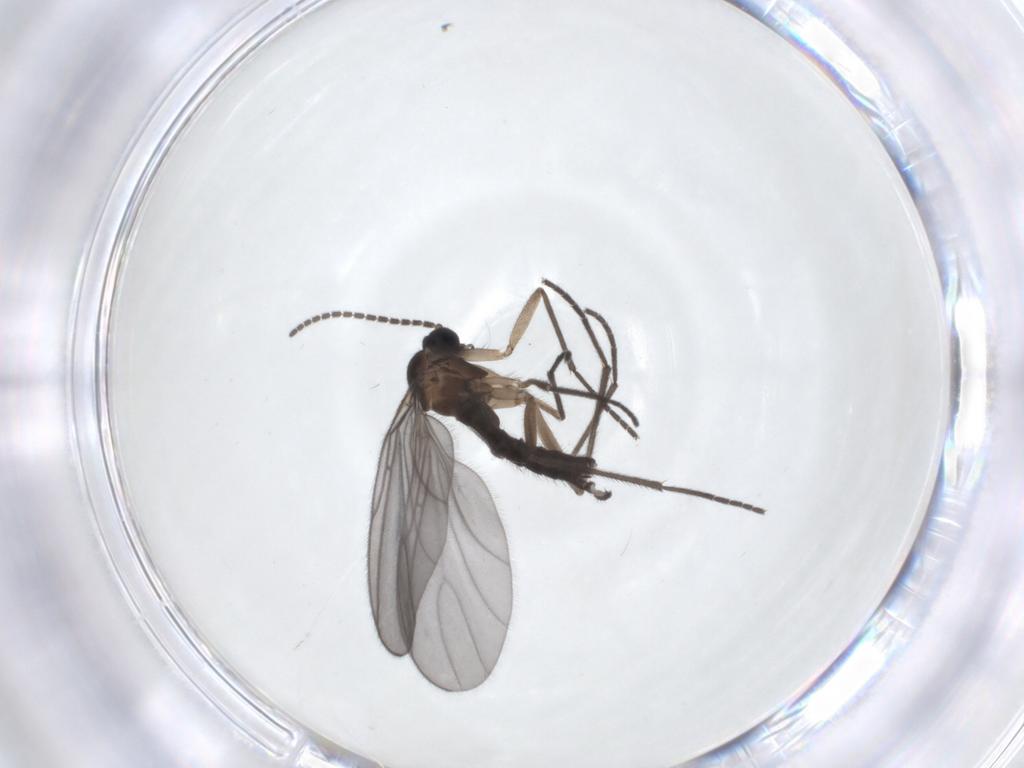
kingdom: Animalia
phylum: Arthropoda
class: Insecta
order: Diptera
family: Sciaridae
